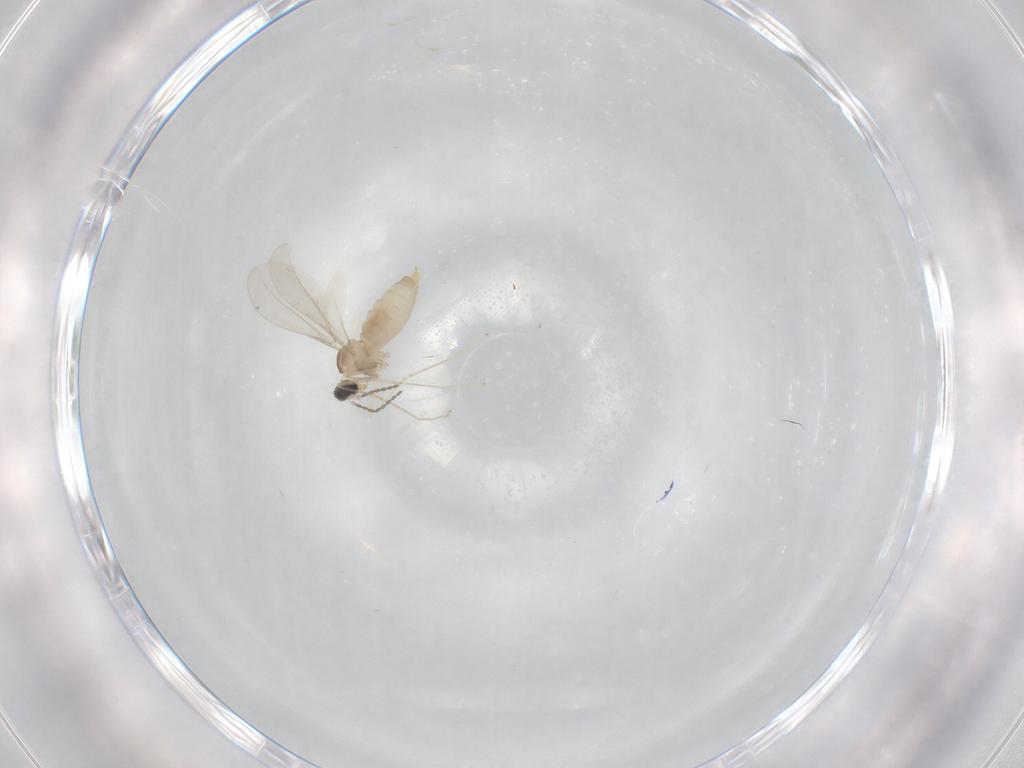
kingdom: Animalia
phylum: Arthropoda
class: Insecta
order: Diptera
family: Cecidomyiidae
